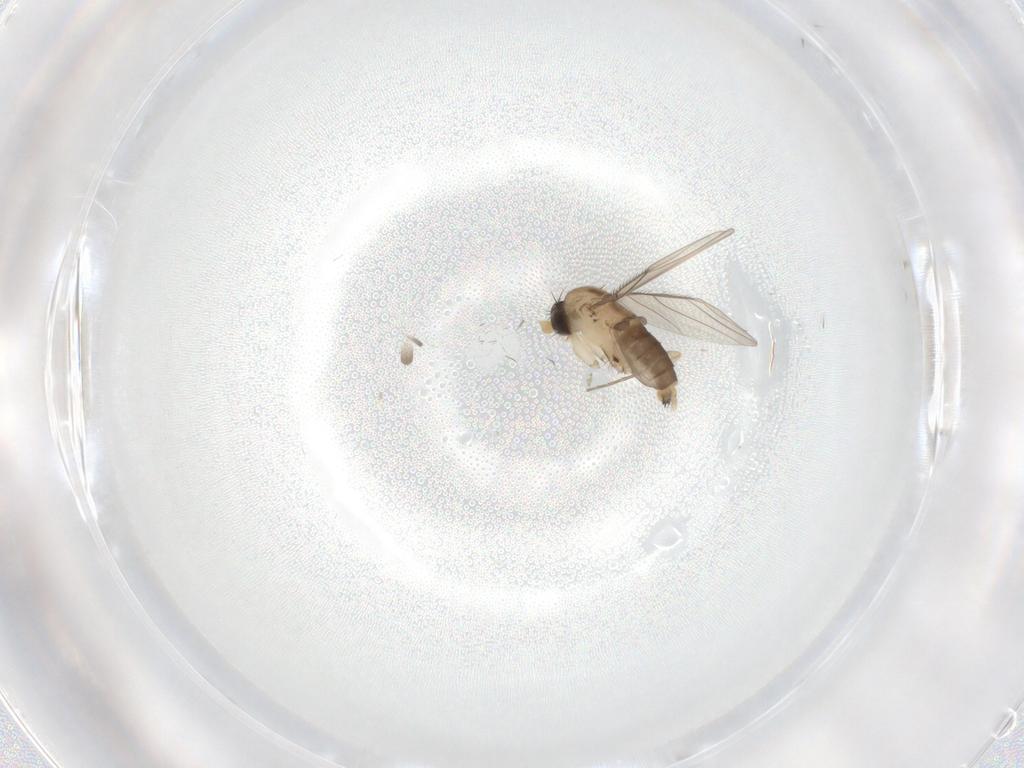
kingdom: Animalia
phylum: Arthropoda
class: Insecta
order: Diptera
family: Phoridae
